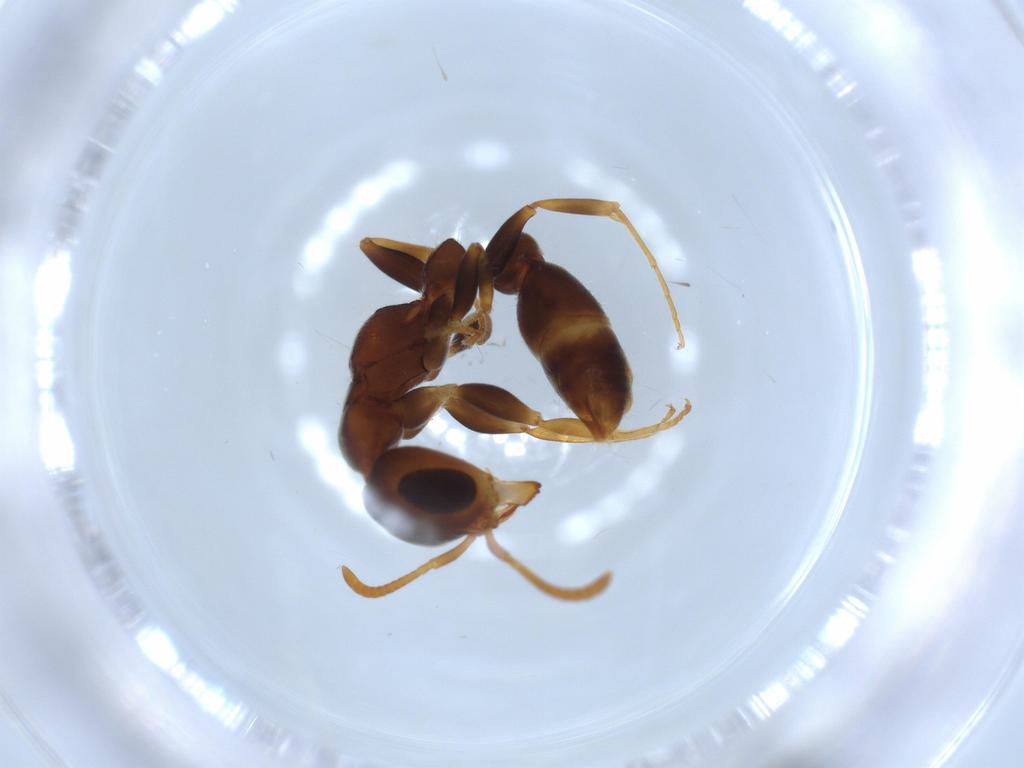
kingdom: Animalia
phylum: Arthropoda
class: Insecta
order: Hymenoptera
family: Formicidae
